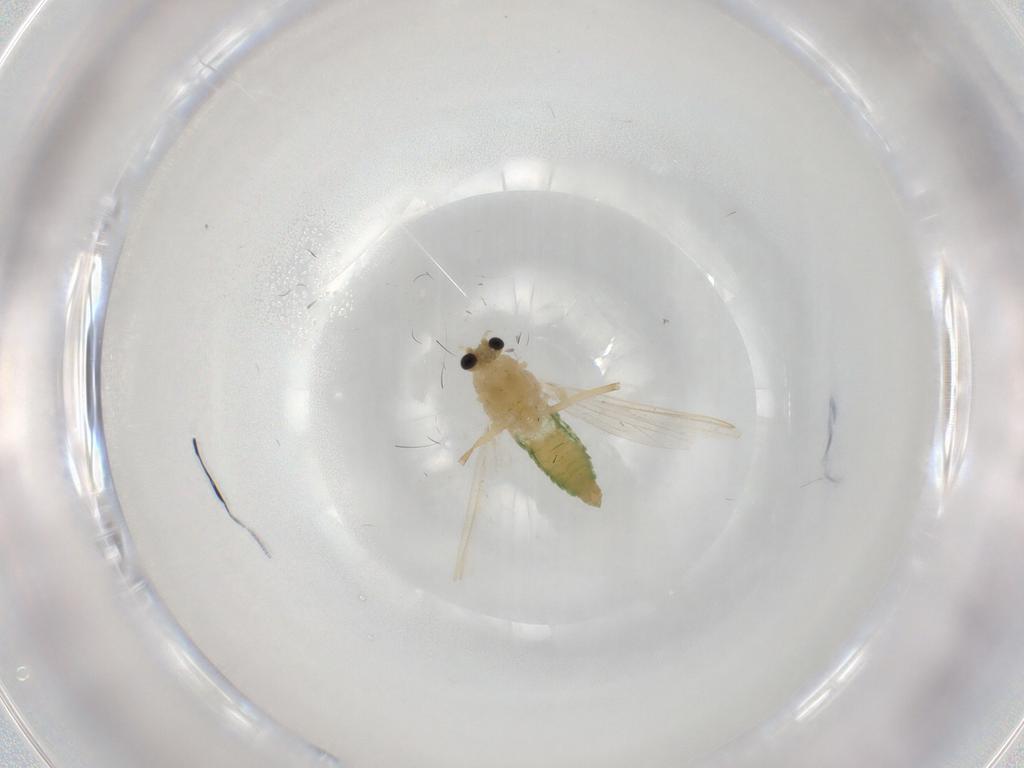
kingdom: Animalia
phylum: Arthropoda
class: Insecta
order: Diptera
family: Chironomidae
